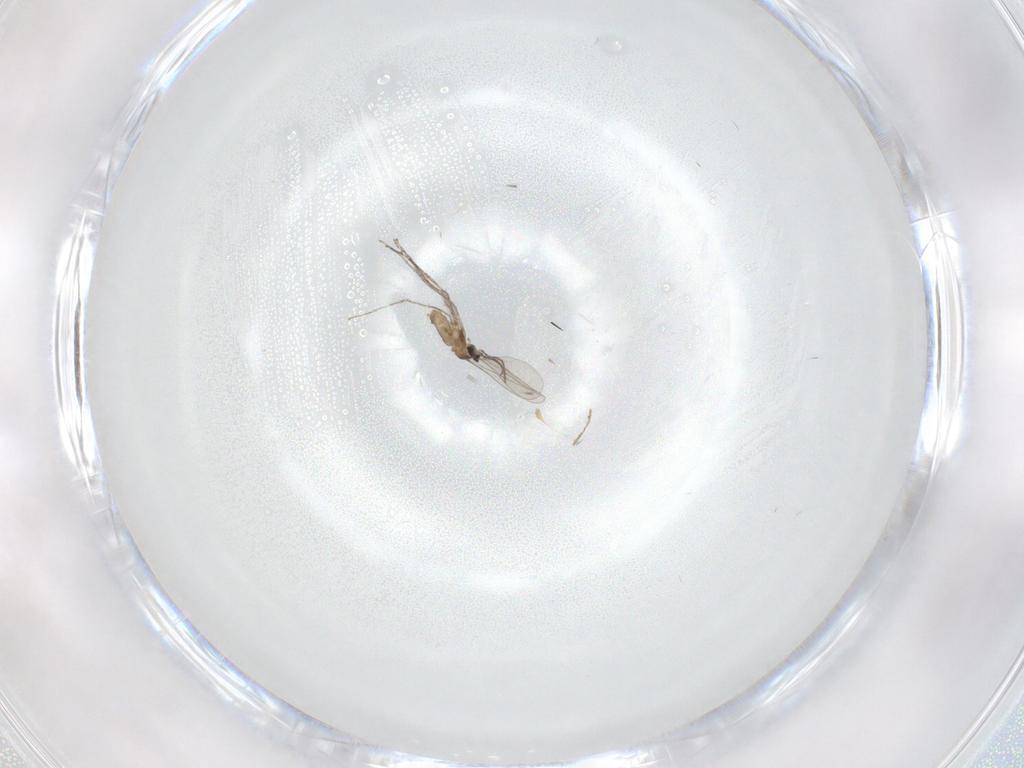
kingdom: Animalia
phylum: Arthropoda
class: Insecta
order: Diptera
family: Cecidomyiidae
